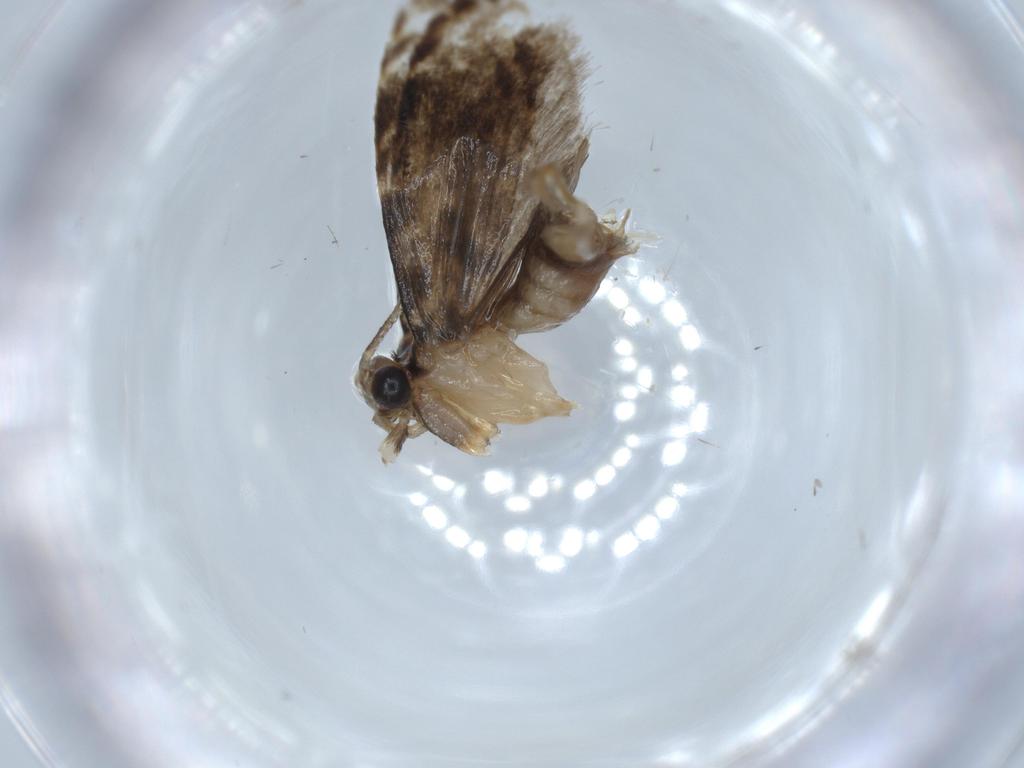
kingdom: Animalia
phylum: Arthropoda
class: Insecta
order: Lepidoptera
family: Tineidae
